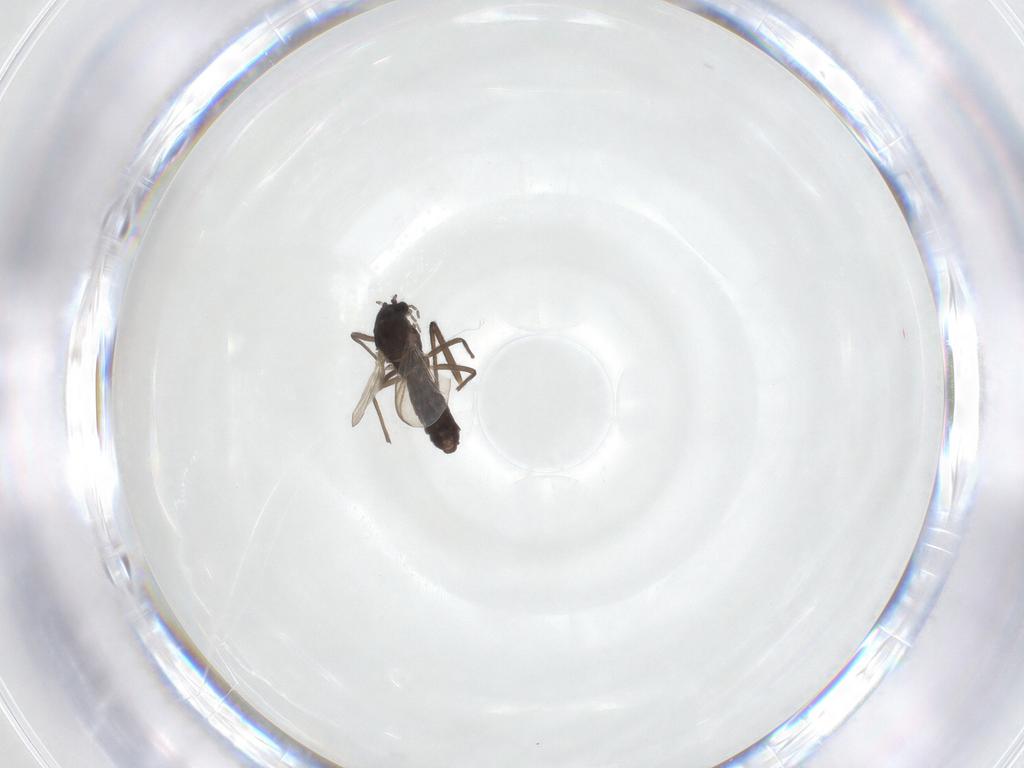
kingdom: Animalia
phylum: Arthropoda
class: Insecta
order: Diptera
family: Chironomidae
